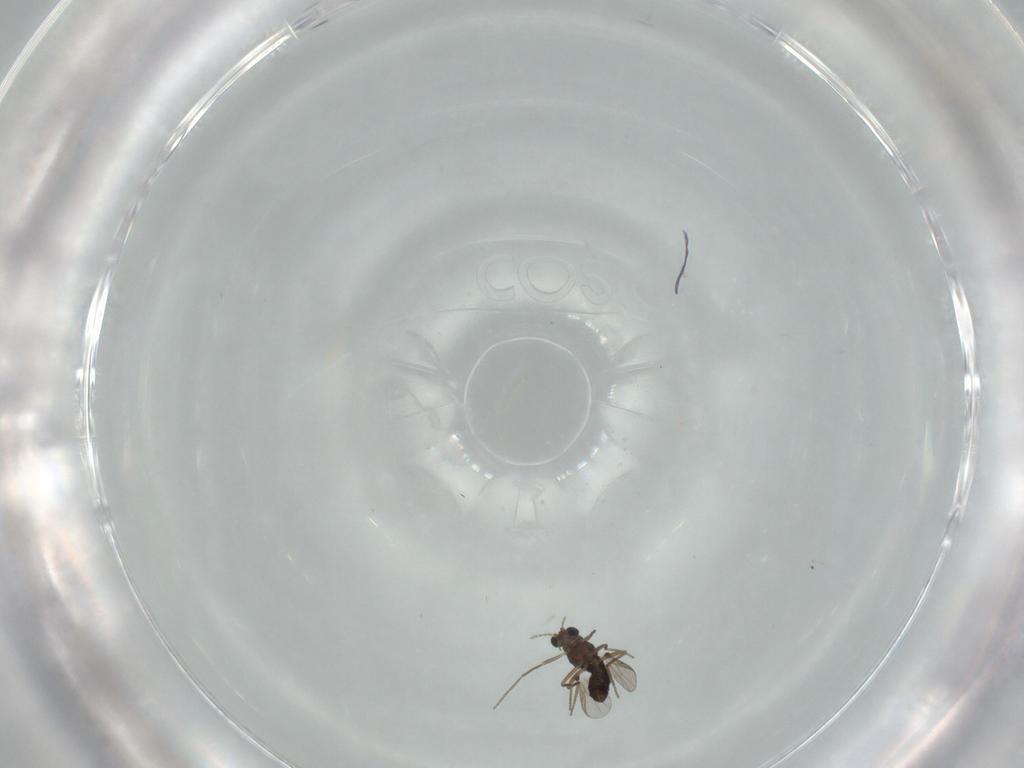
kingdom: Animalia
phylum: Arthropoda
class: Insecta
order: Diptera
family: Chironomidae
